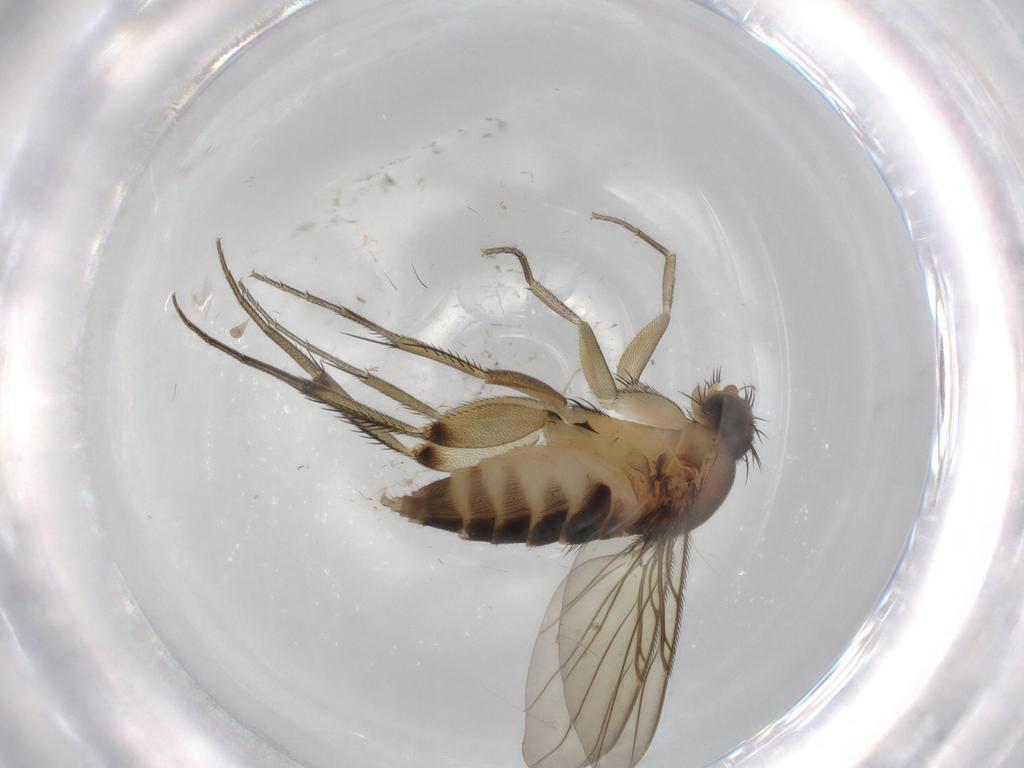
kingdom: Animalia
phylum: Arthropoda
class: Insecta
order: Diptera
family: Phoridae
